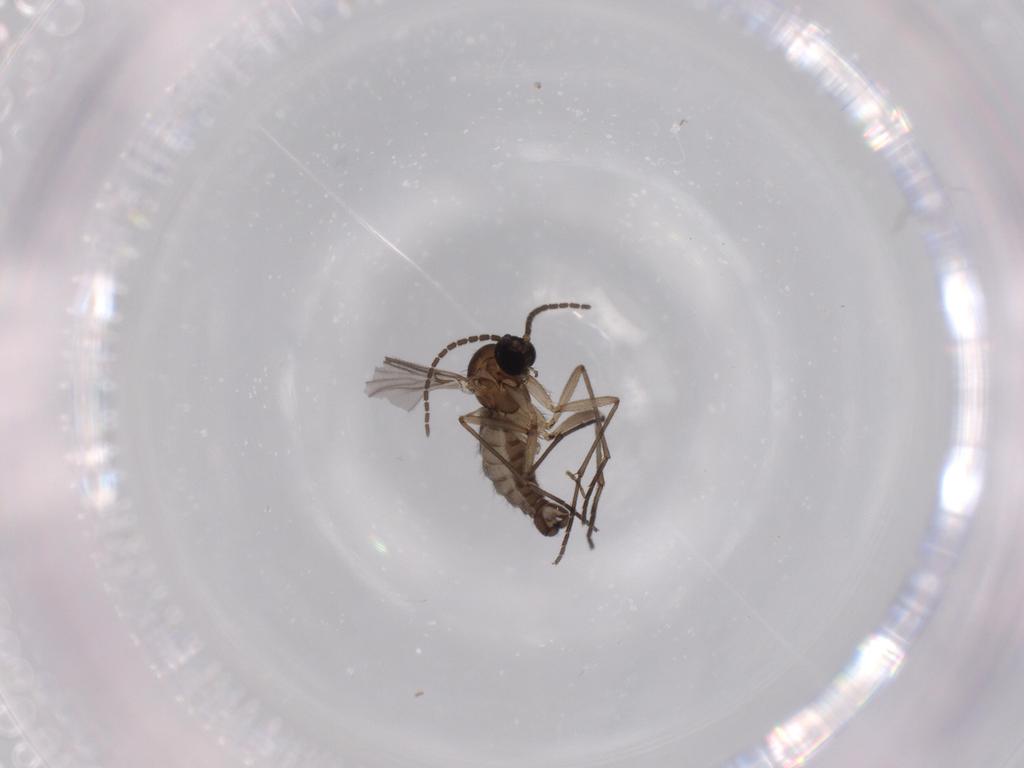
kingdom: Animalia
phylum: Arthropoda
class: Insecta
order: Diptera
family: Sciaridae
